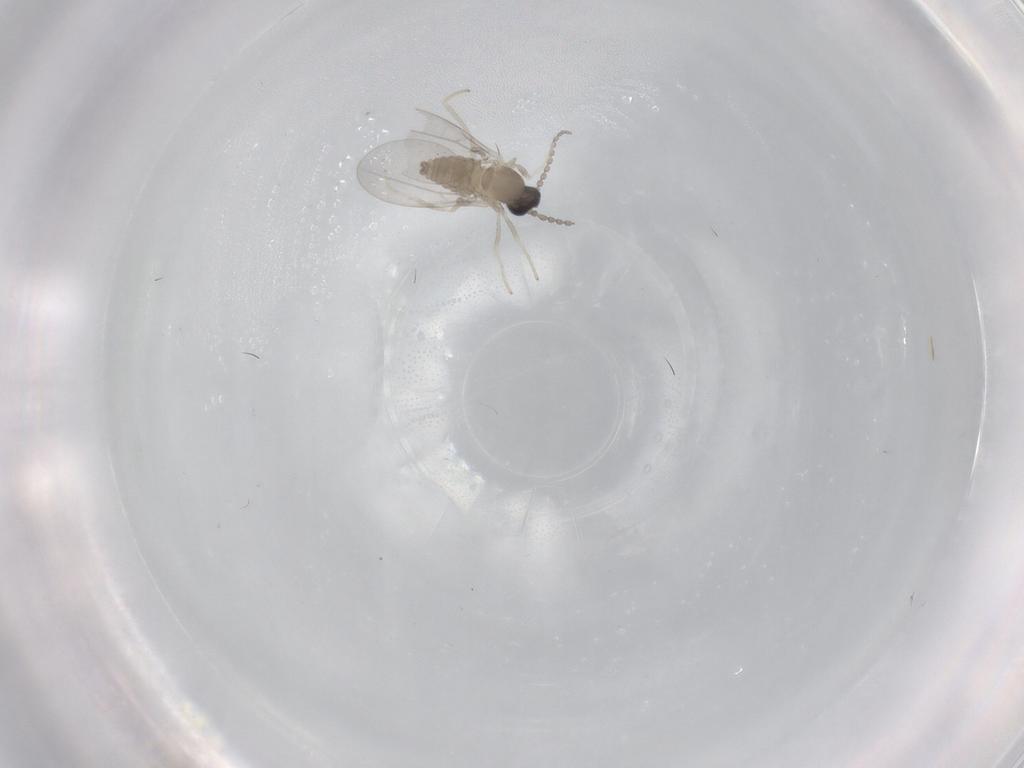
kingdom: Animalia
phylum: Arthropoda
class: Insecta
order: Diptera
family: Cecidomyiidae
